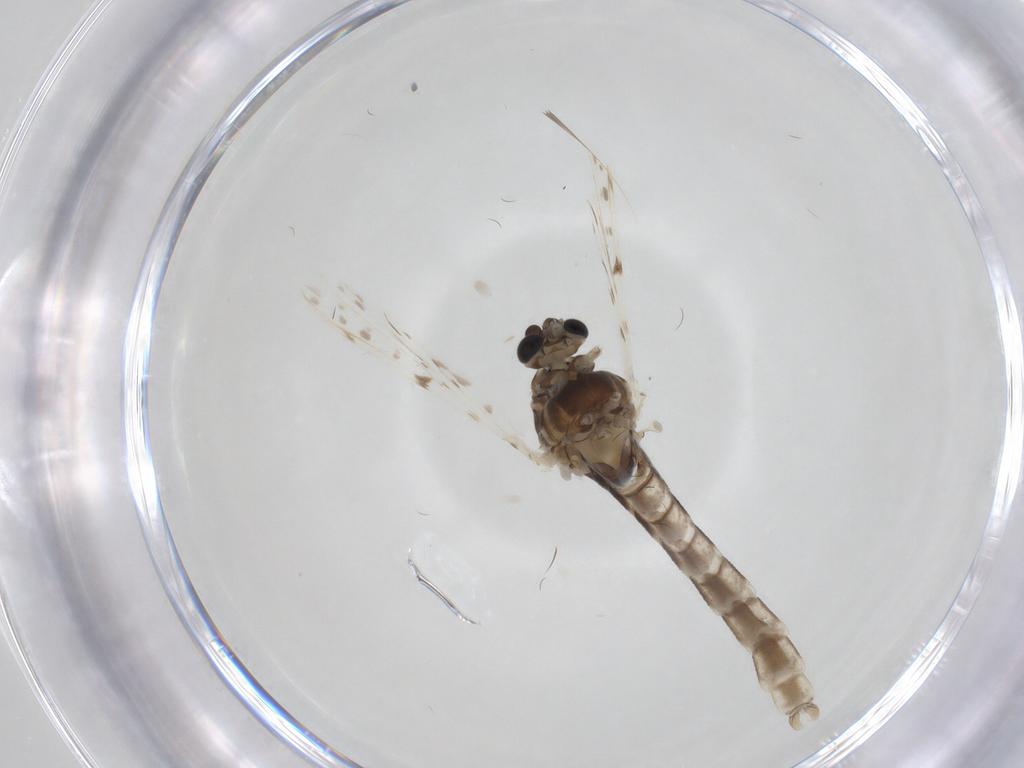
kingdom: Animalia
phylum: Arthropoda
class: Insecta
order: Diptera
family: Chironomidae
